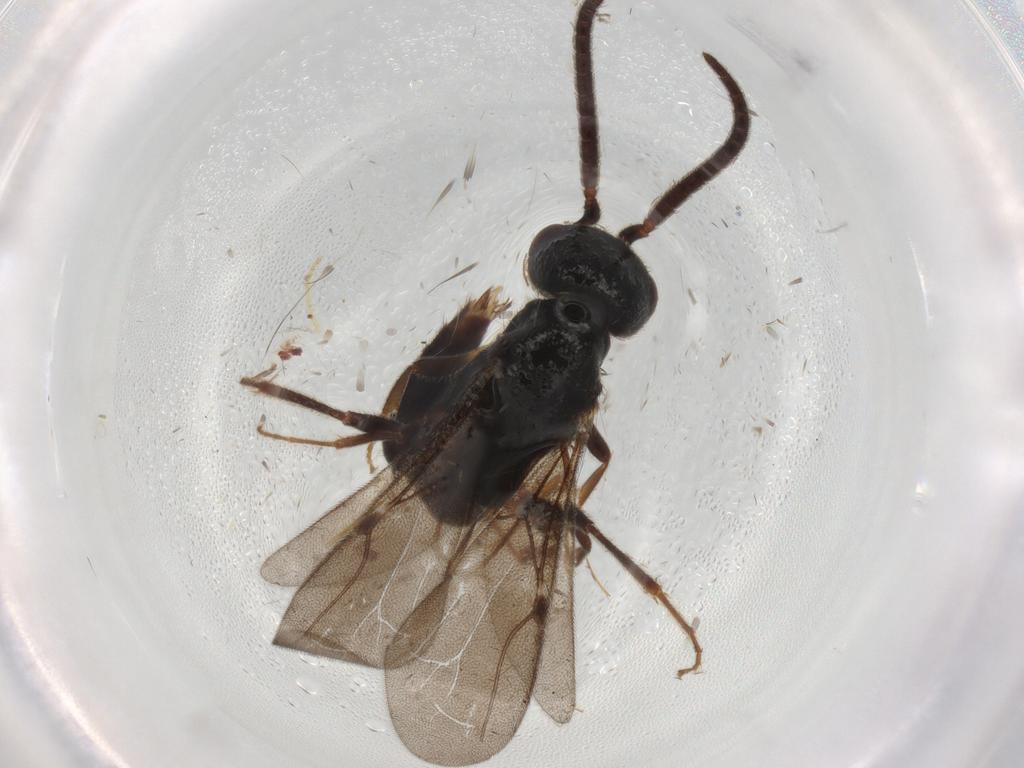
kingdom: Animalia
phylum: Arthropoda
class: Insecta
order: Hymenoptera
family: Bethylidae
